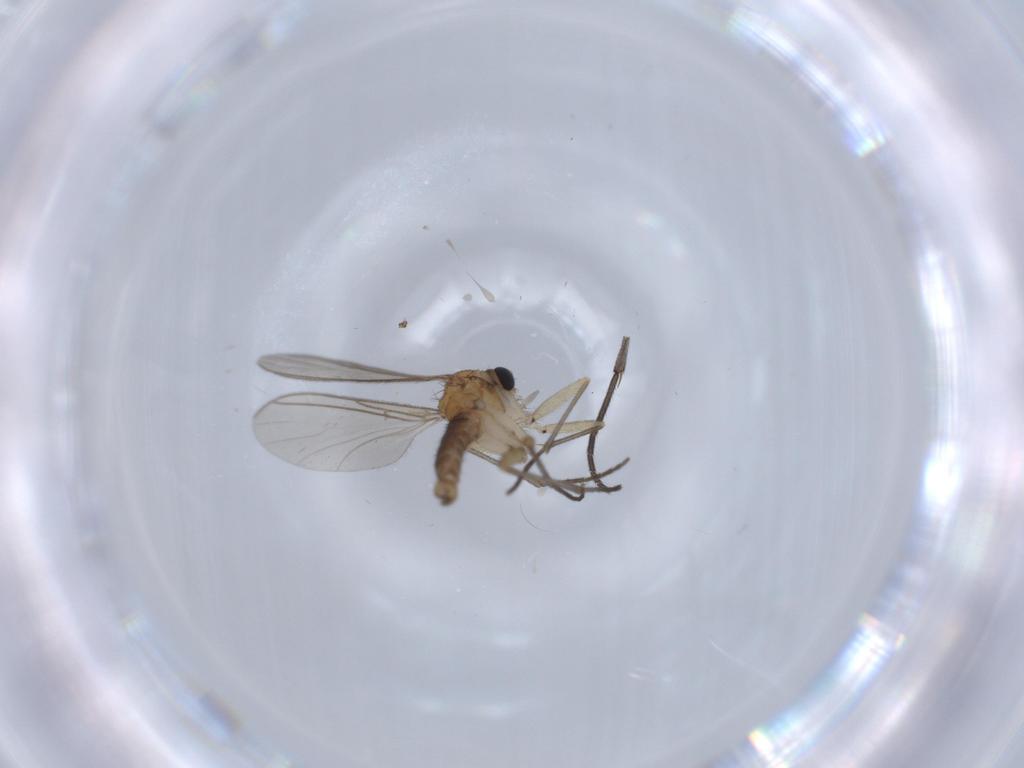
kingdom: Animalia
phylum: Arthropoda
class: Insecta
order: Diptera
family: Sciaridae
